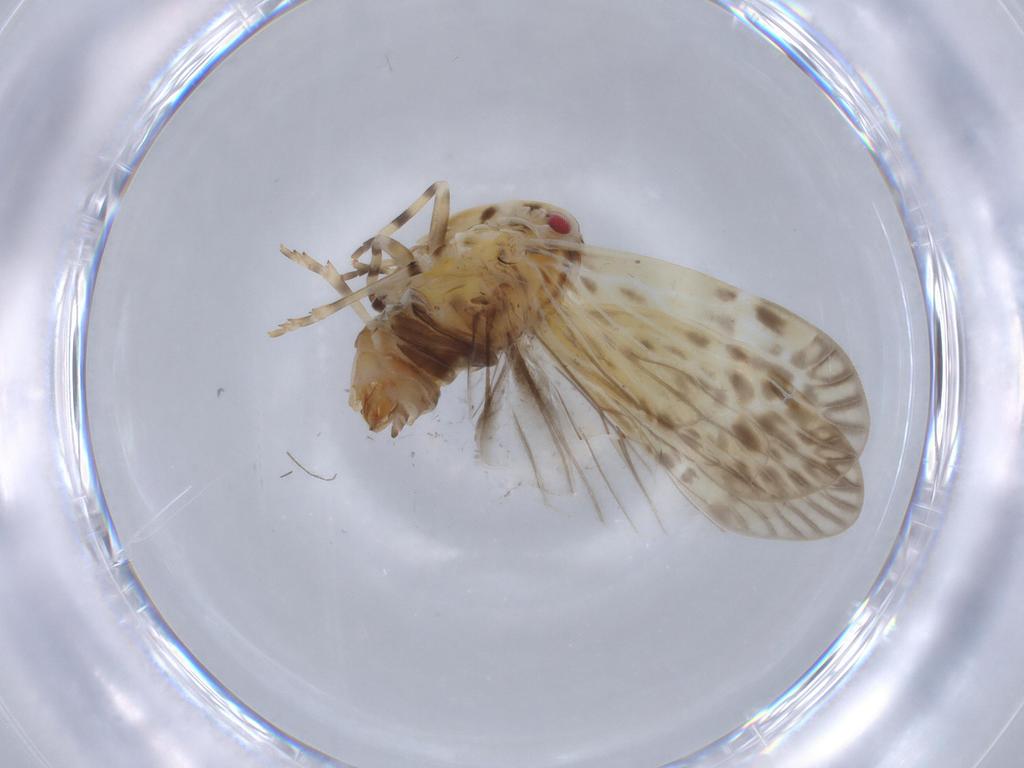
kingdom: Animalia
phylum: Arthropoda
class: Insecta
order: Hemiptera
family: Derbidae
